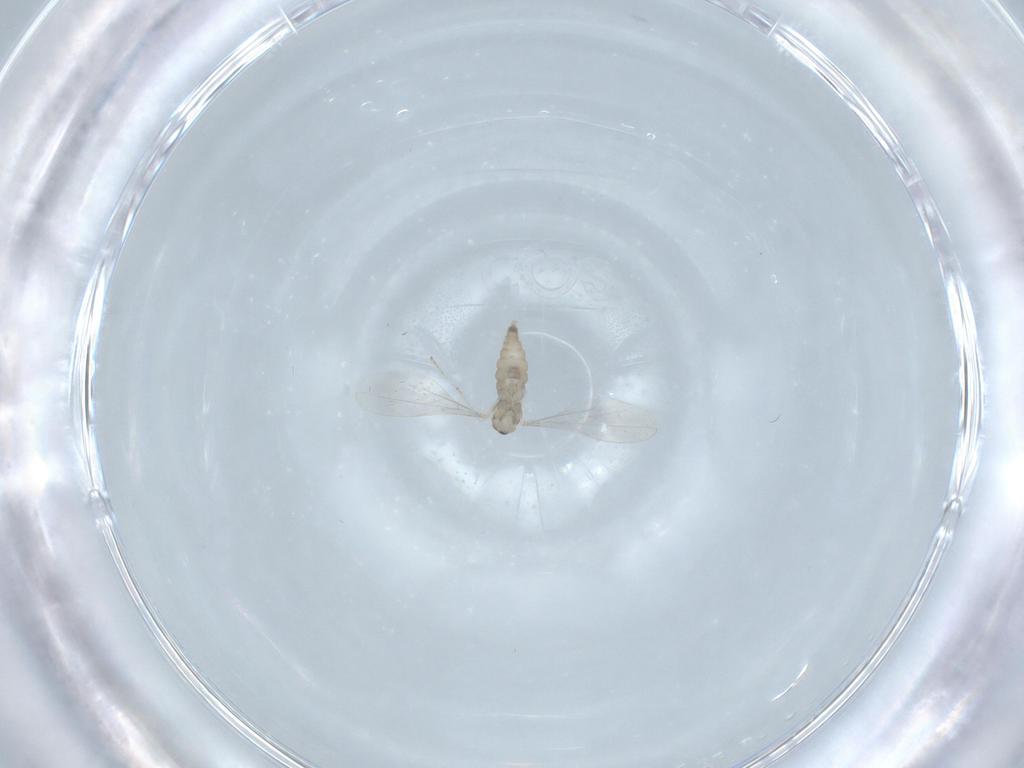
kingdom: Animalia
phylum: Arthropoda
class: Insecta
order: Diptera
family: Cecidomyiidae
